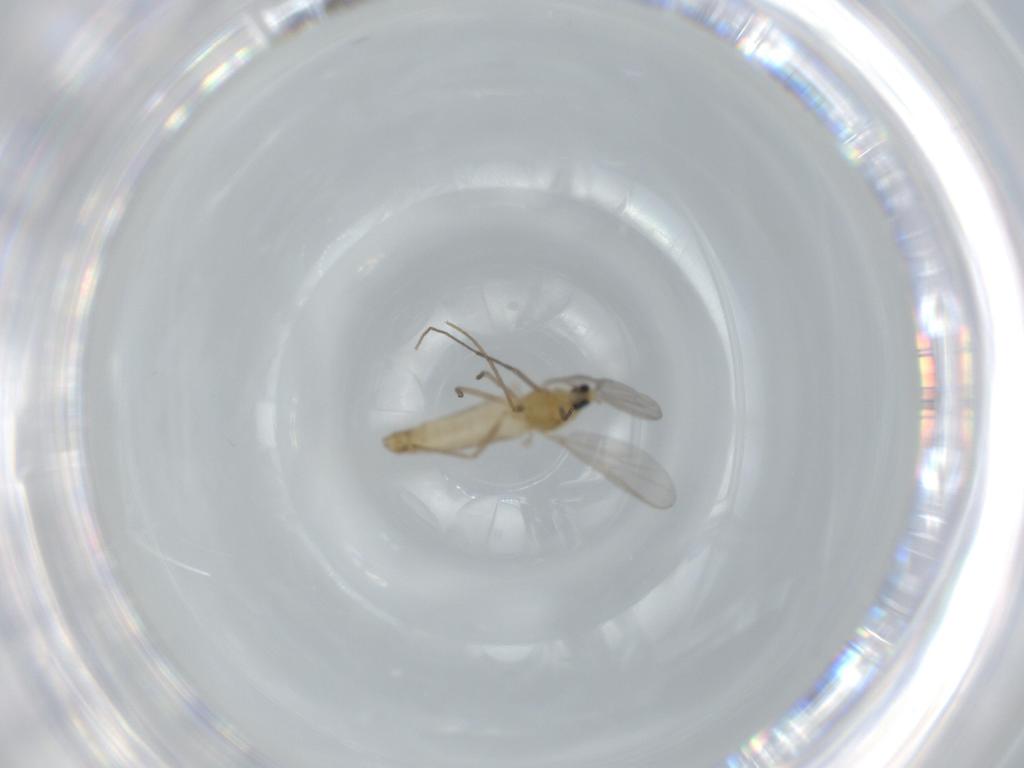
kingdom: Animalia
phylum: Arthropoda
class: Insecta
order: Diptera
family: Chironomidae
